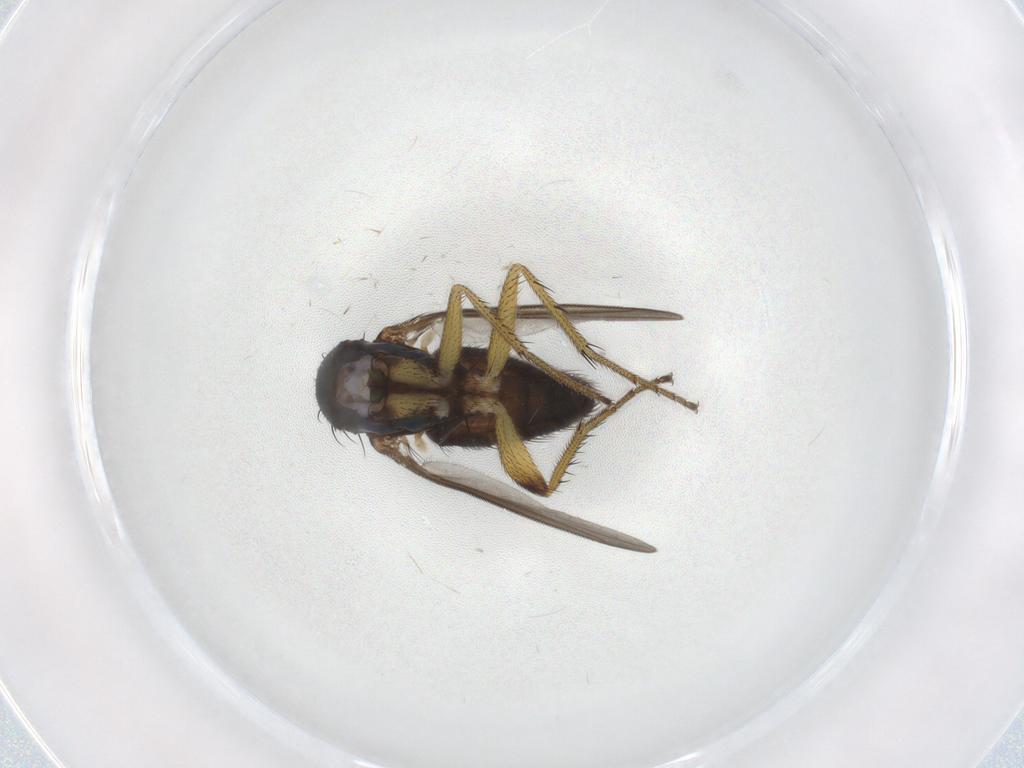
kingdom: Animalia
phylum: Arthropoda
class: Insecta
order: Diptera
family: Dolichopodidae
